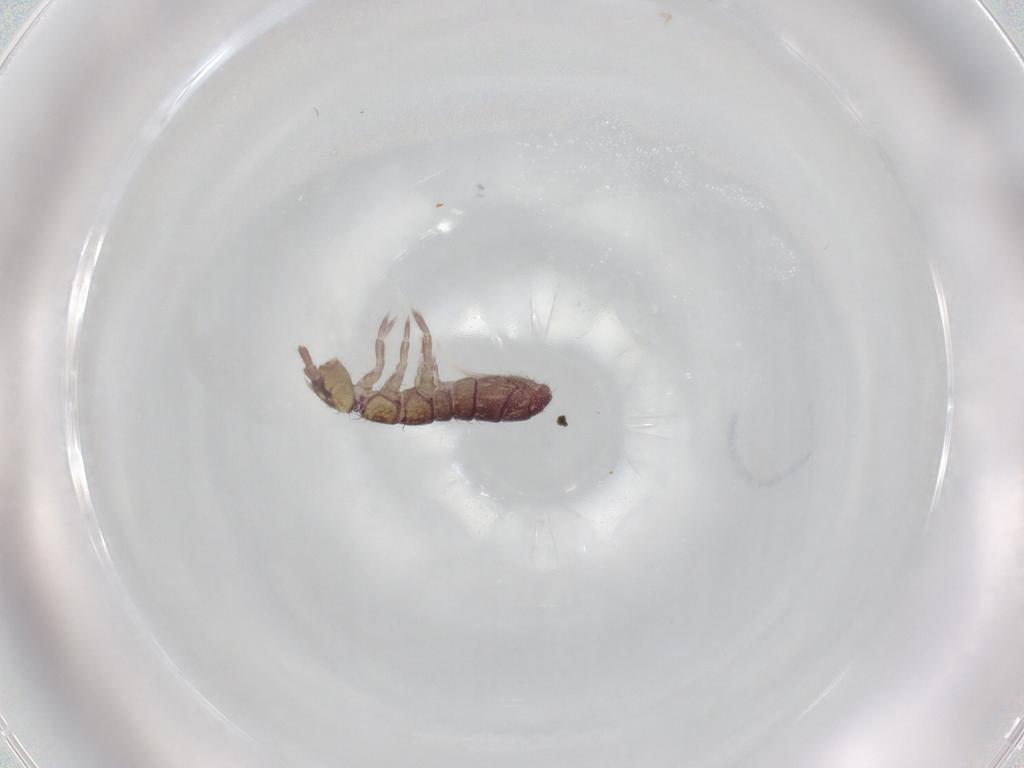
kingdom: Animalia
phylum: Arthropoda
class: Collembola
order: Entomobryomorpha
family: Isotomidae
